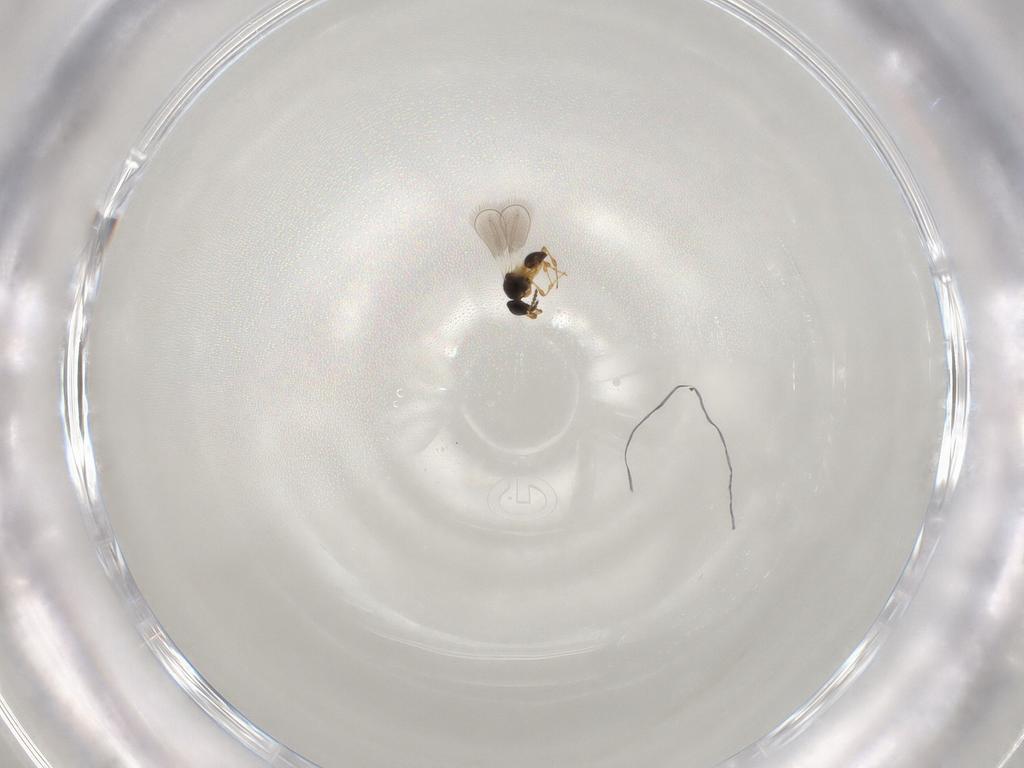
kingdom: Animalia
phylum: Arthropoda
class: Insecta
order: Hymenoptera
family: Platygastridae
